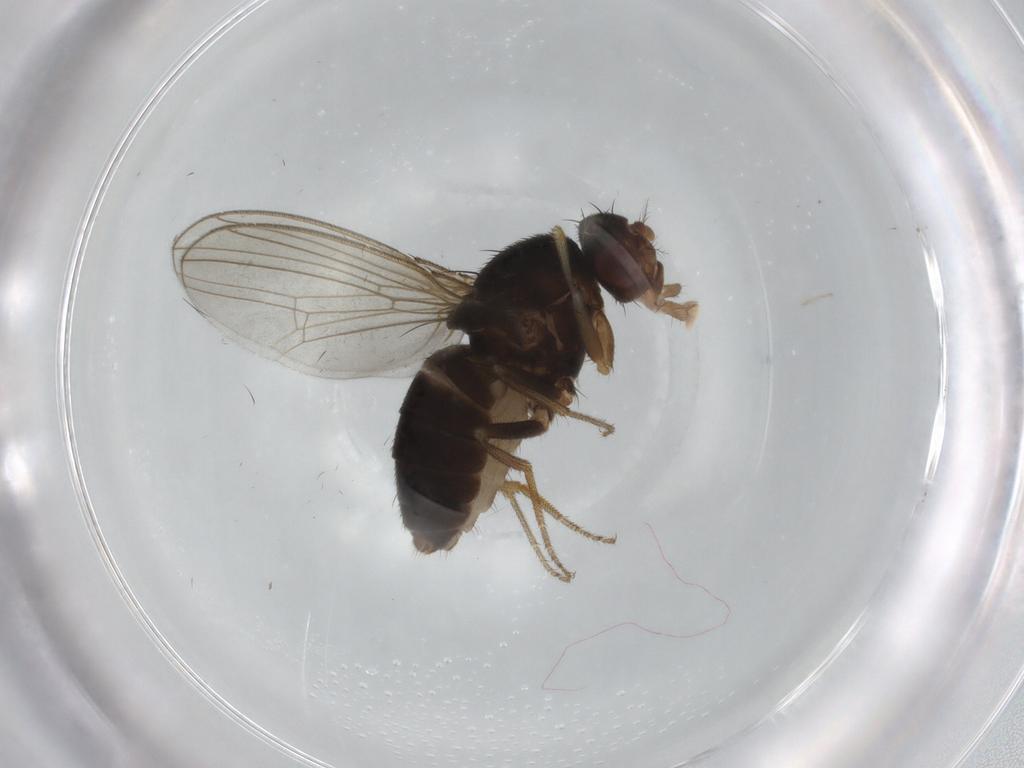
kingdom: Animalia
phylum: Arthropoda
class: Insecta
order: Diptera
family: Drosophilidae
